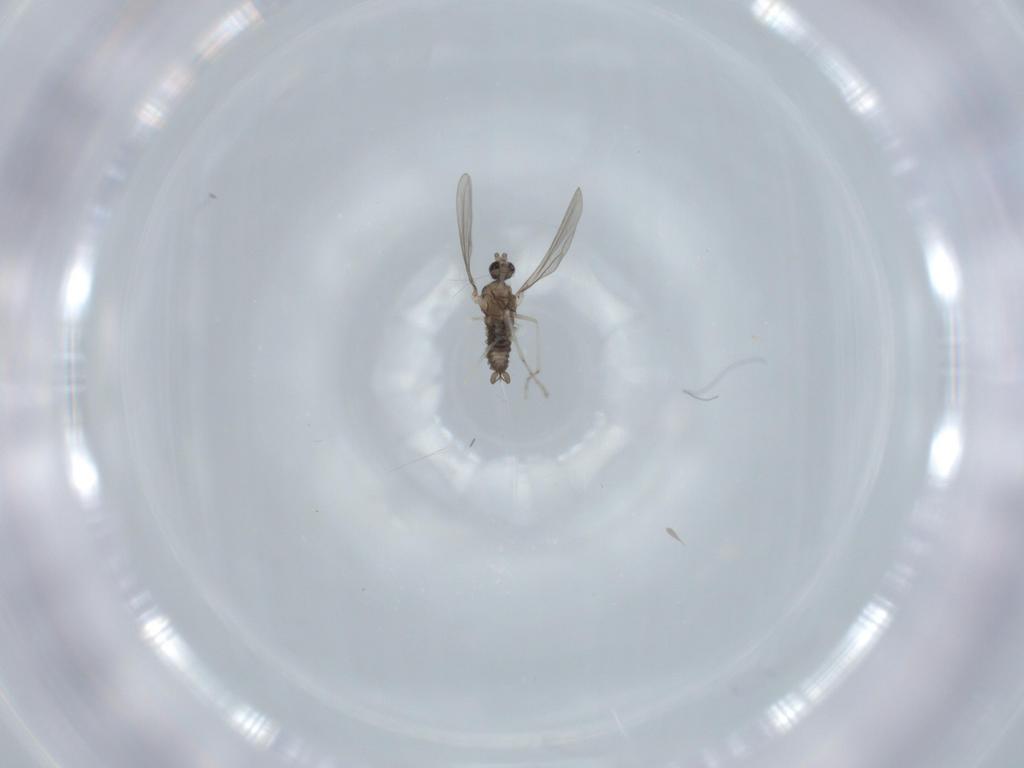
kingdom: Animalia
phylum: Arthropoda
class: Insecta
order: Diptera
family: Cecidomyiidae
